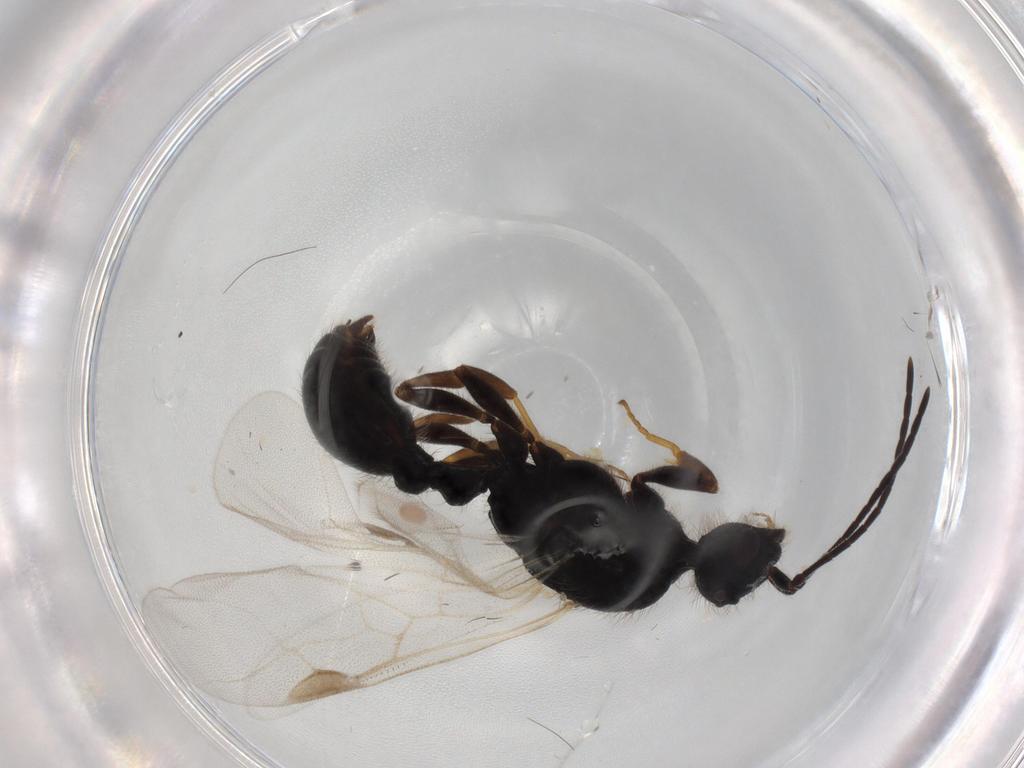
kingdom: Animalia
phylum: Arthropoda
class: Insecta
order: Hymenoptera
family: Formicidae
